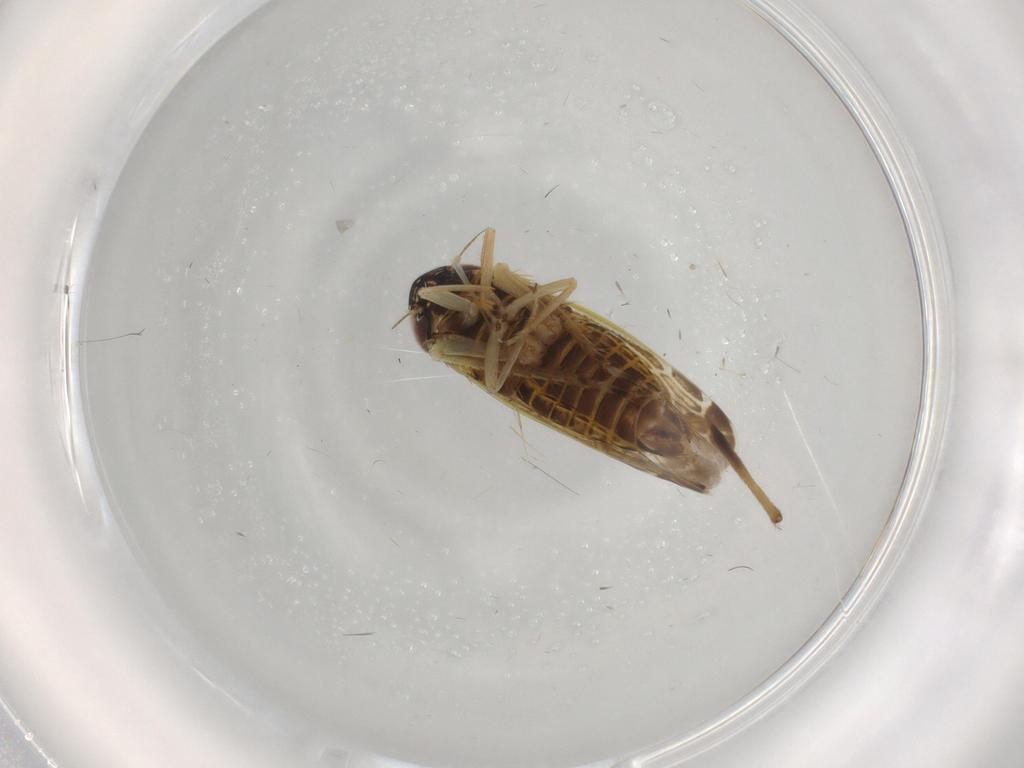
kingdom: Animalia
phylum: Arthropoda
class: Insecta
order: Hemiptera
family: Cicadellidae
